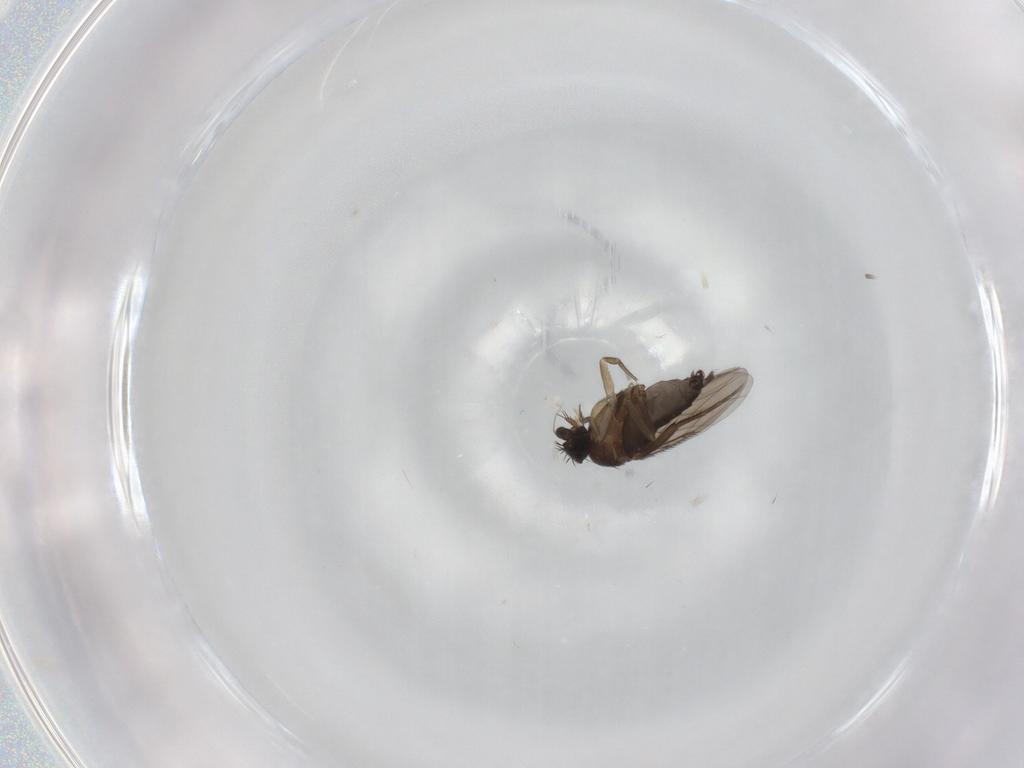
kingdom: Animalia
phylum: Arthropoda
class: Insecta
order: Diptera
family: Phoridae
